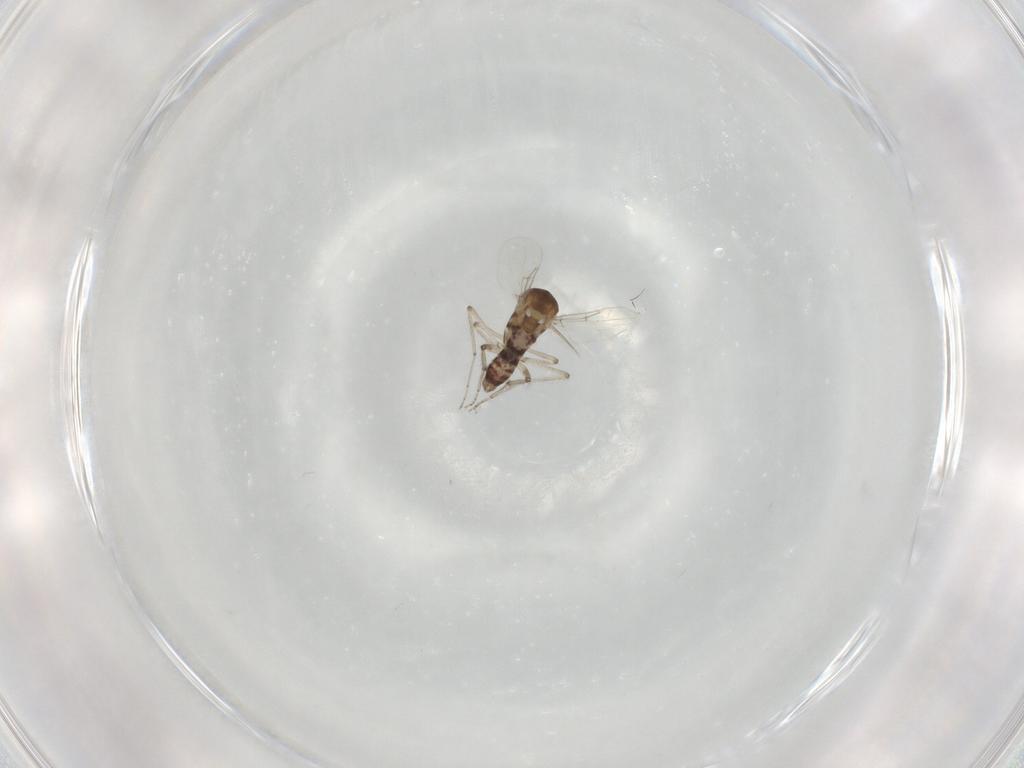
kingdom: Animalia
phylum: Arthropoda
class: Insecta
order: Diptera
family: Ceratopogonidae
